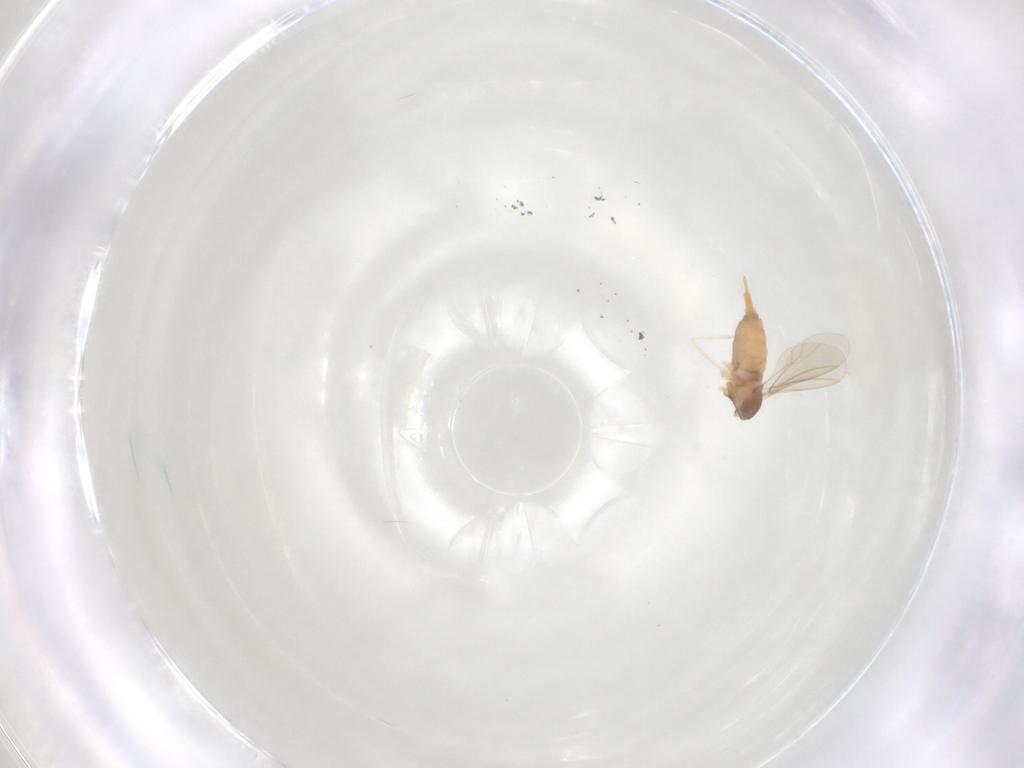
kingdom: Animalia
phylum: Arthropoda
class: Insecta
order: Diptera
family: Cecidomyiidae
